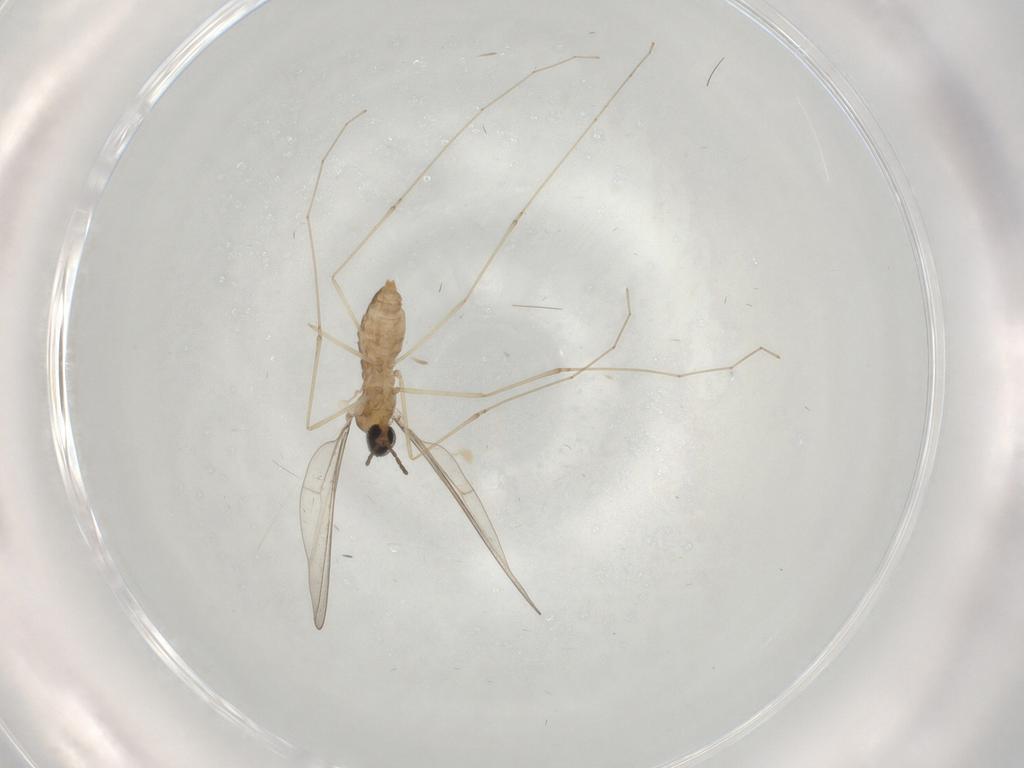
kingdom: Animalia
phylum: Arthropoda
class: Insecta
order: Diptera
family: Cecidomyiidae
